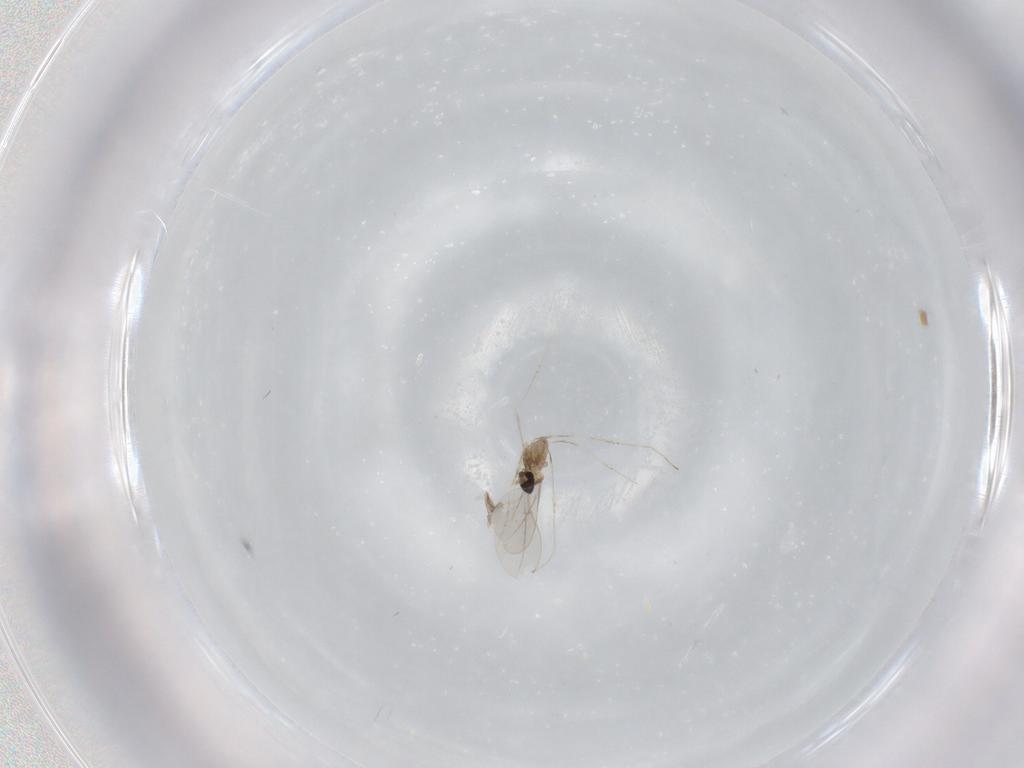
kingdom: Animalia
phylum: Arthropoda
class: Insecta
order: Diptera
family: Cecidomyiidae
